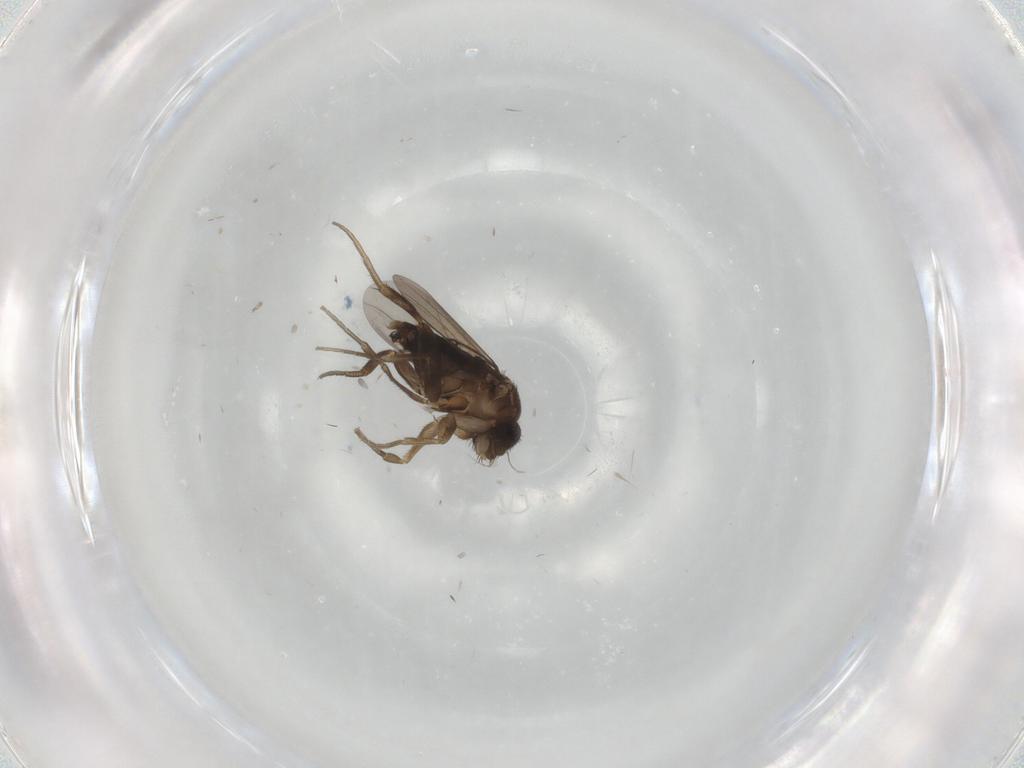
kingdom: Animalia
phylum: Arthropoda
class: Insecta
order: Diptera
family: Phoridae
